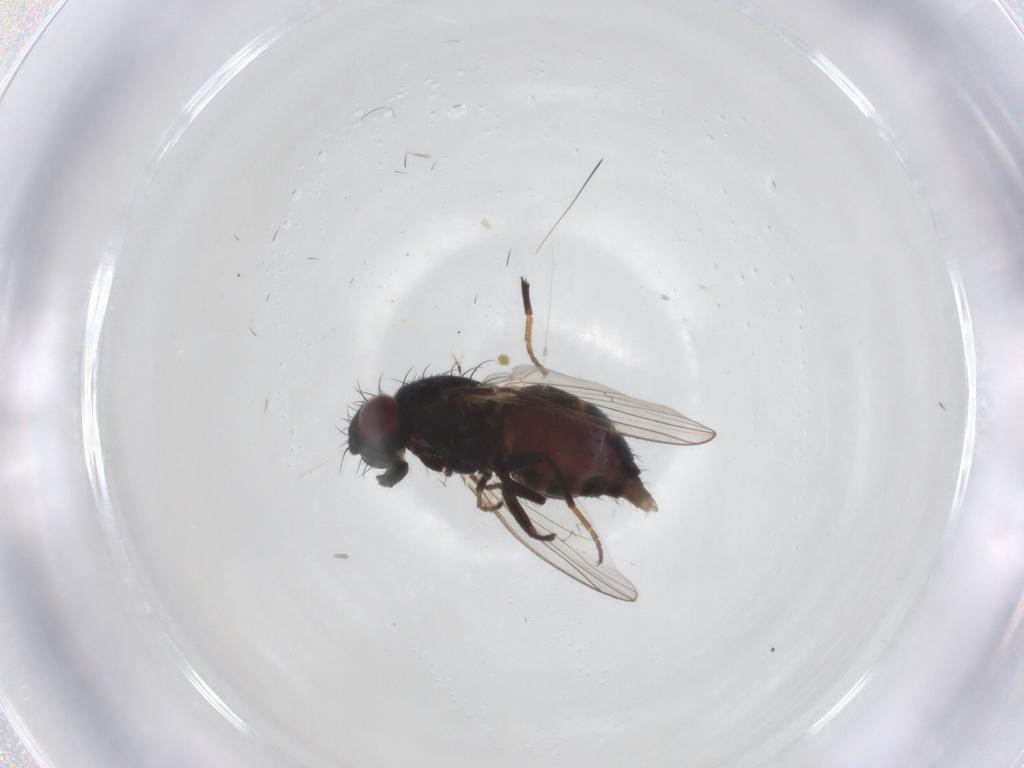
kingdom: Animalia
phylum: Arthropoda
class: Insecta
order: Diptera
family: Carnidae
